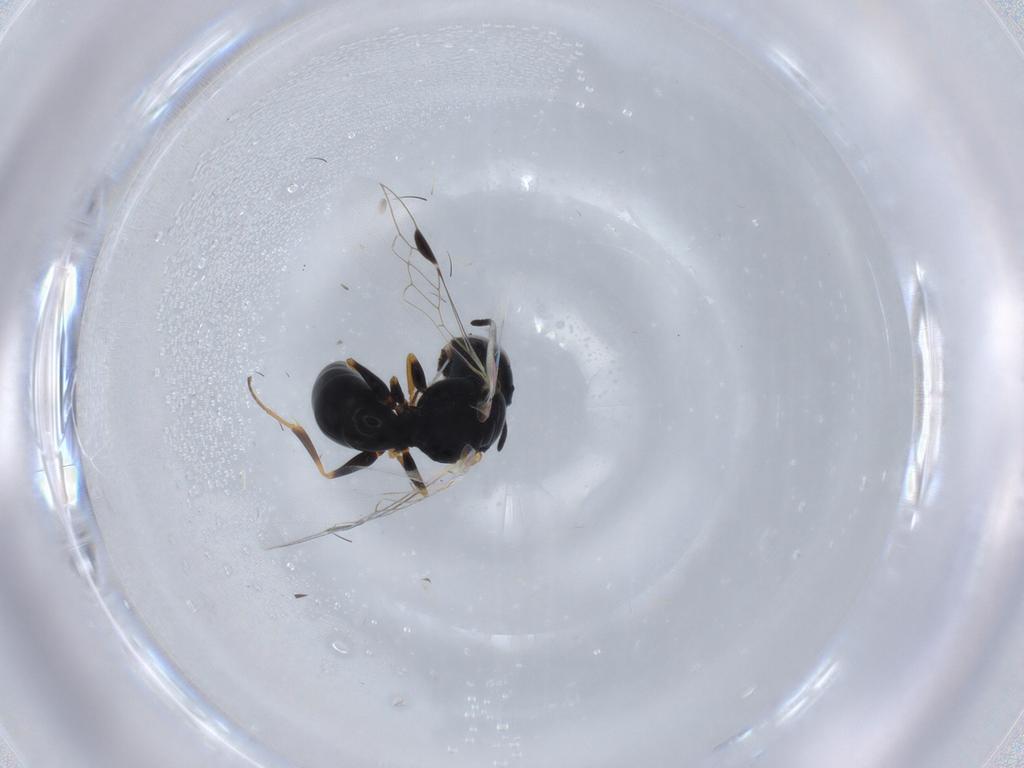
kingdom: Animalia
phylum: Arthropoda
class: Insecta
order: Hymenoptera
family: Crabronidae
